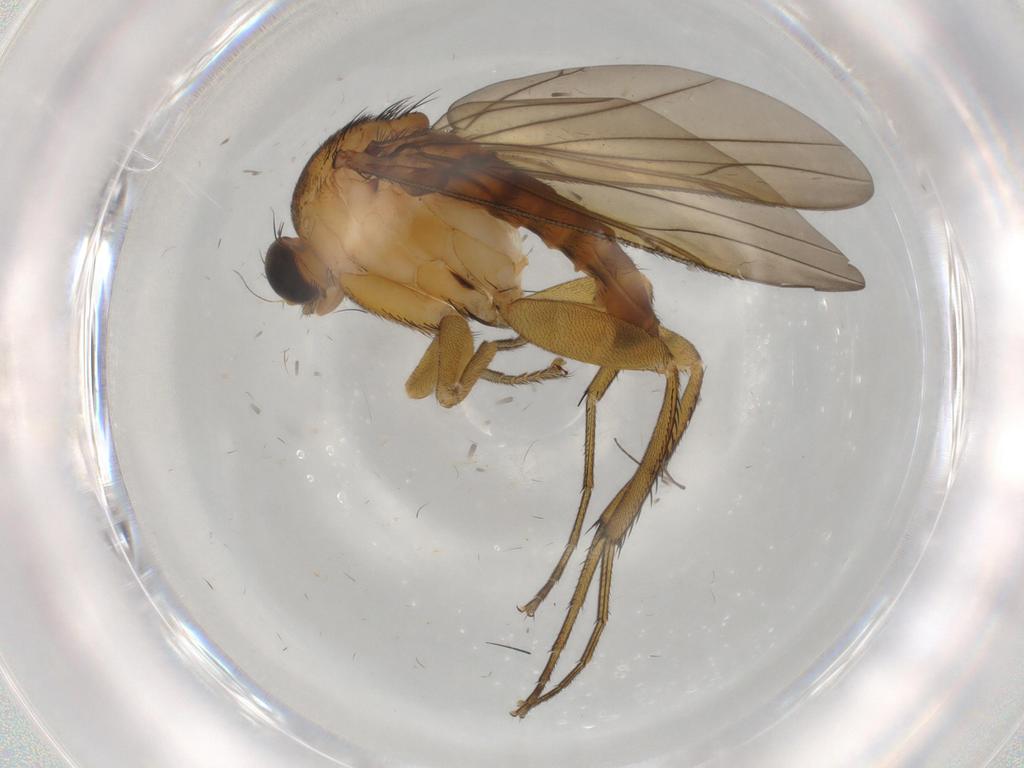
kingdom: Animalia
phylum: Arthropoda
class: Insecta
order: Diptera
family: Phoridae
